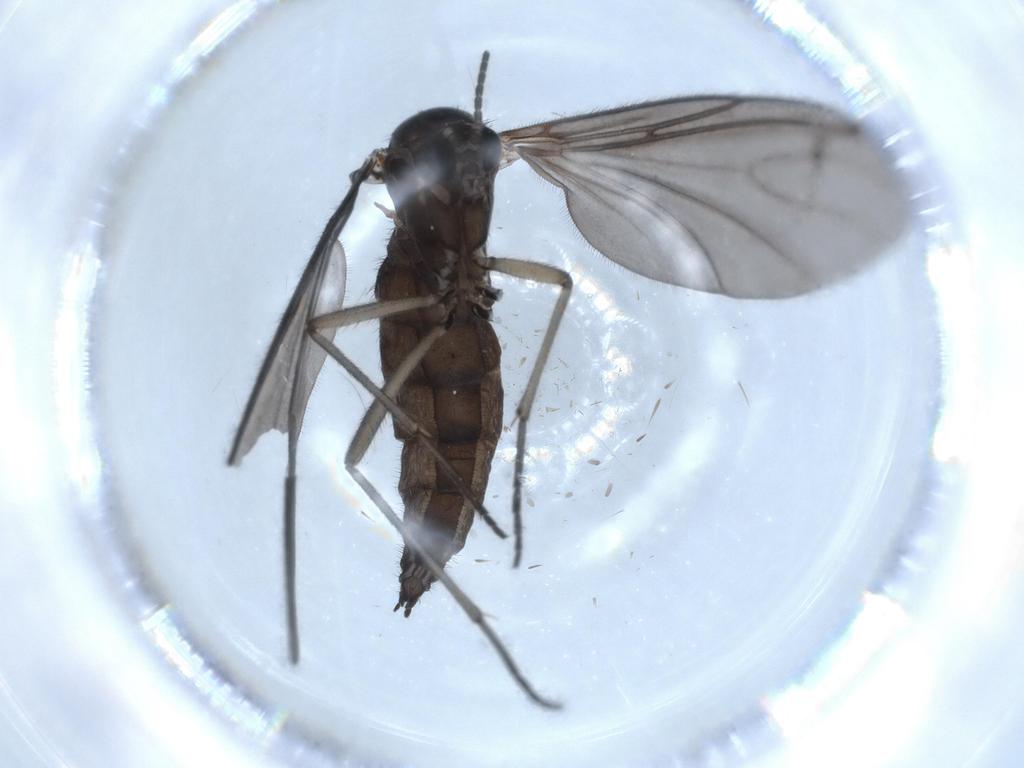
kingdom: Animalia
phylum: Arthropoda
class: Insecta
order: Diptera
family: Sciaridae
